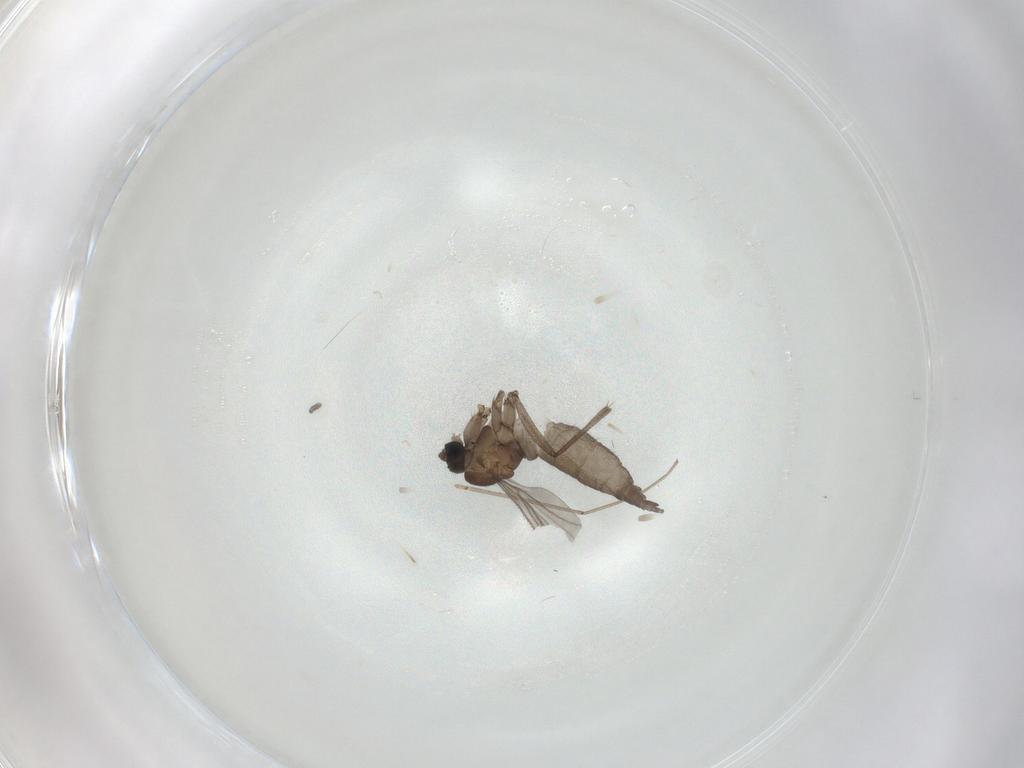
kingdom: Animalia
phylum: Arthropoda
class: Insecta
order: Diptera
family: Sciaridae
